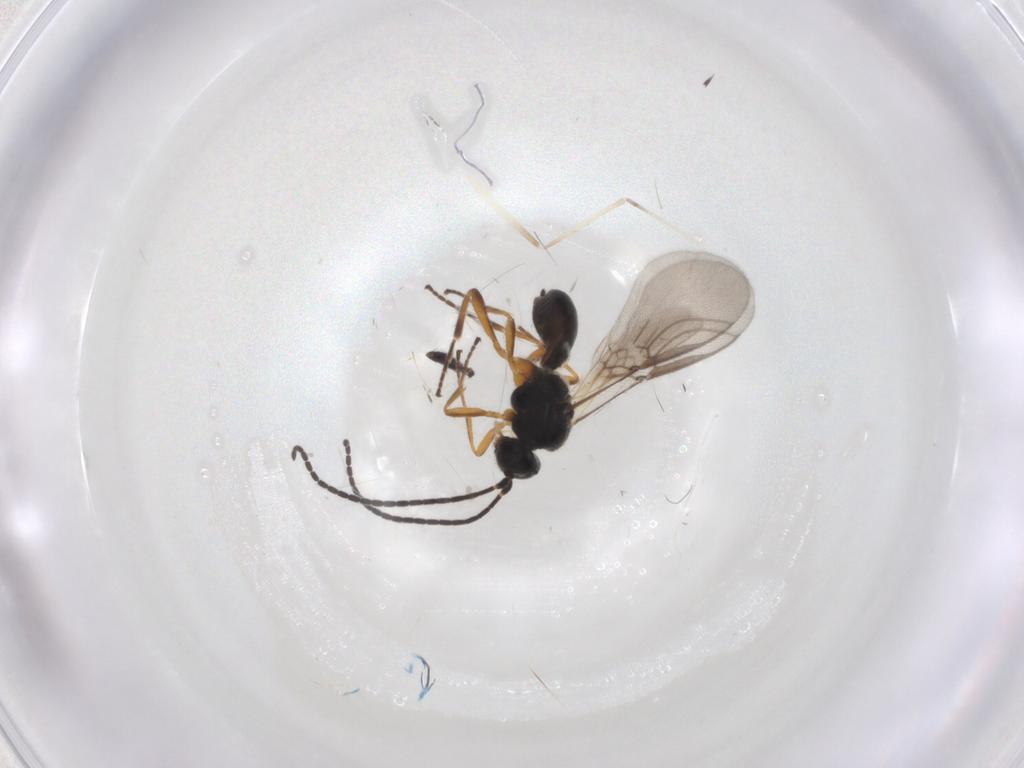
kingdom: Animalia
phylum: Arthropoda
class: Insecta
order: Hymenoptera
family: Braconidae
